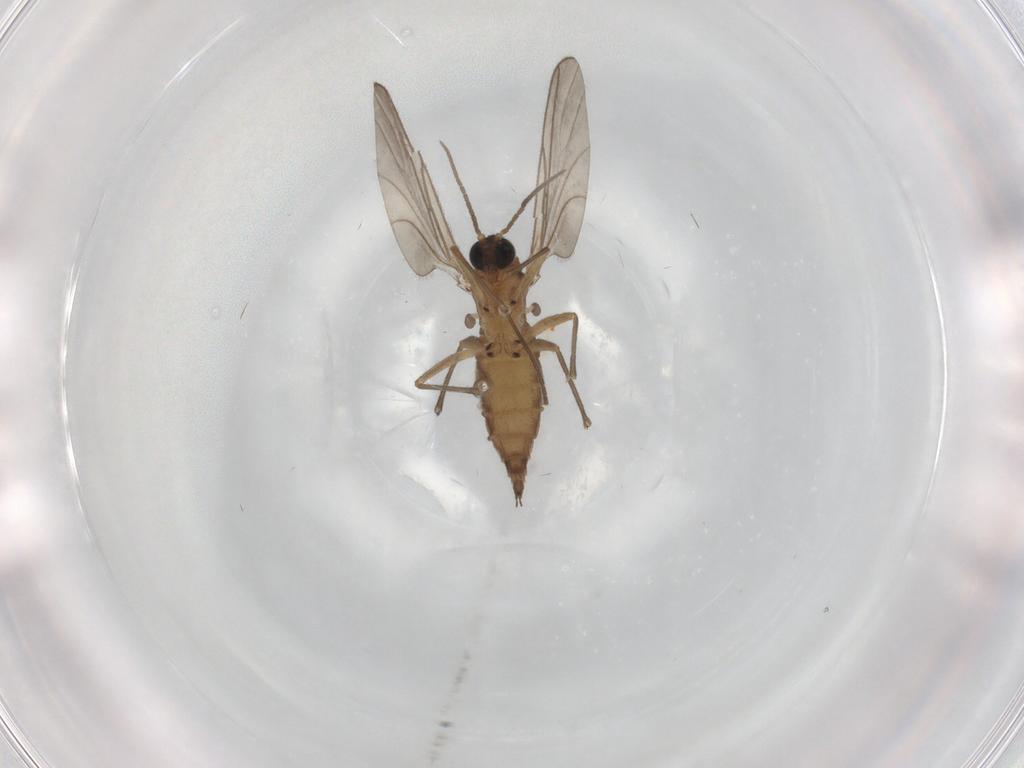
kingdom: Animalia
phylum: Arthropoda
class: Insecta
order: Diptera
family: Sciaridae
